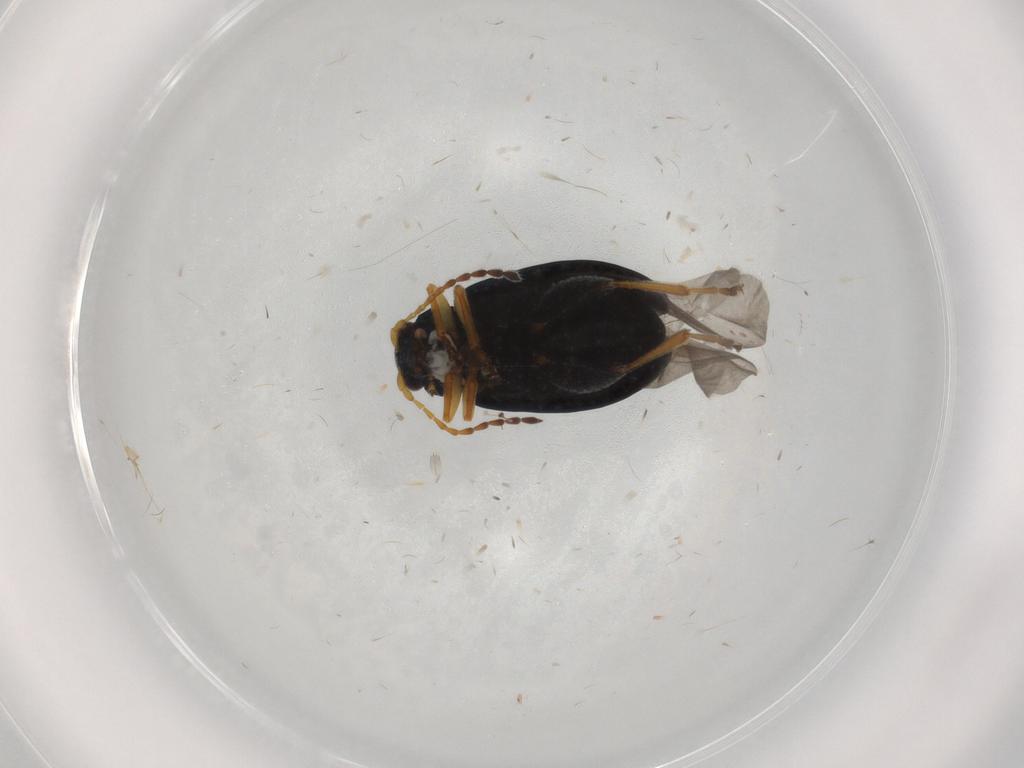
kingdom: Animalia
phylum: Arthropoda
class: Insecta
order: Coleoptera
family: Chrysomelidae
